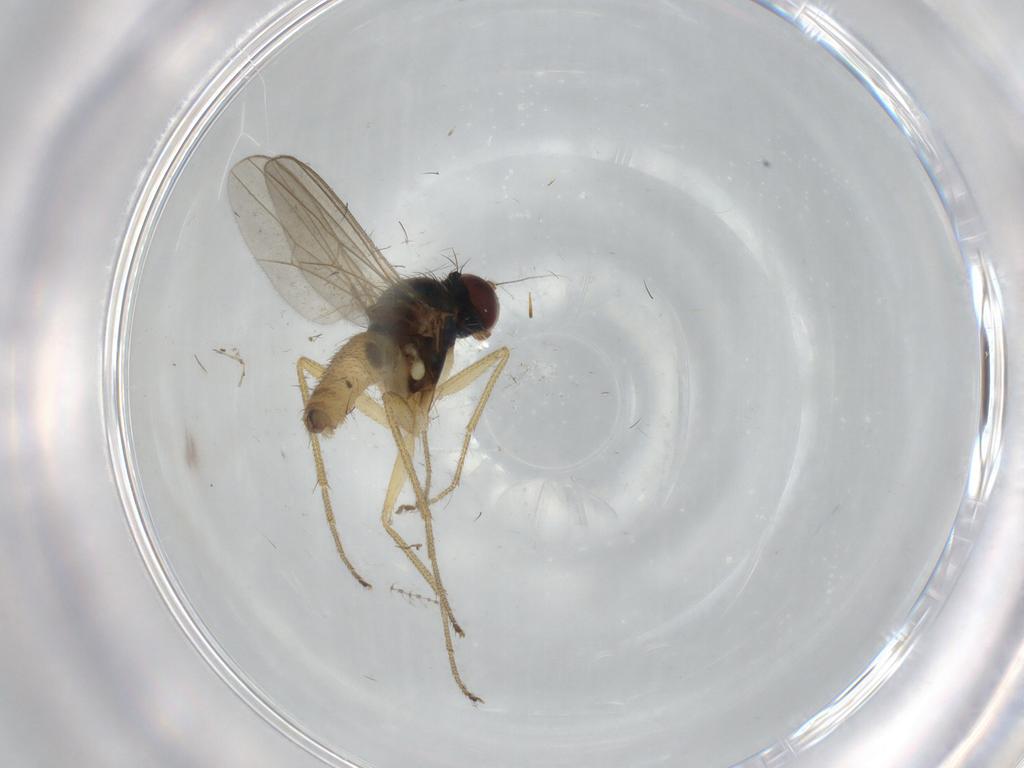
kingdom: Animalia
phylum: Arthropoda
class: Insecta
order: Diptera
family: Dolichopodidae
